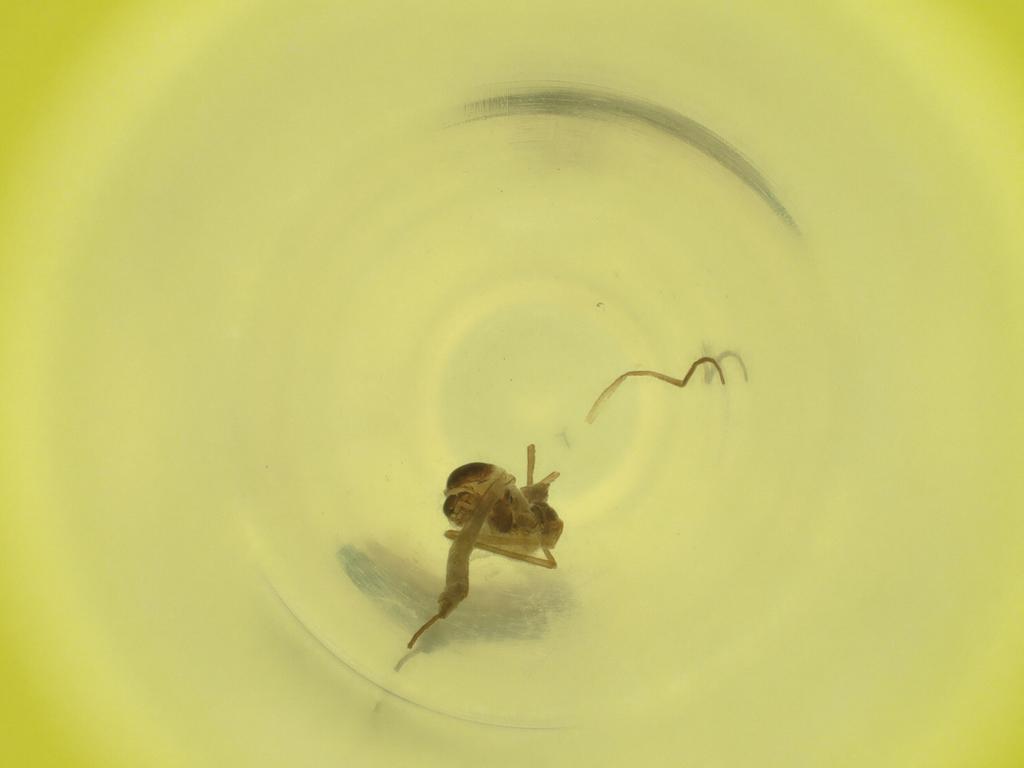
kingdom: Animalia
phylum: Arthropoda
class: Insecta
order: Diptera
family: Cecidomyiidae
